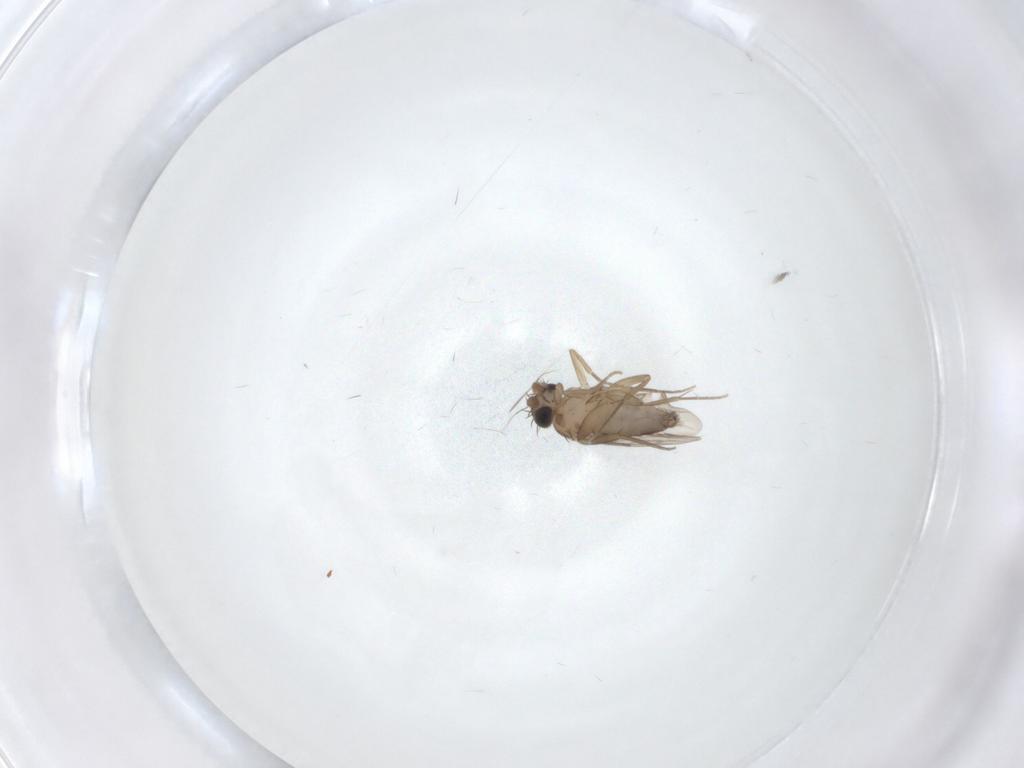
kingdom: Animalia
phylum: Arthropoda
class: Insecta
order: Diptera
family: Phoridae
